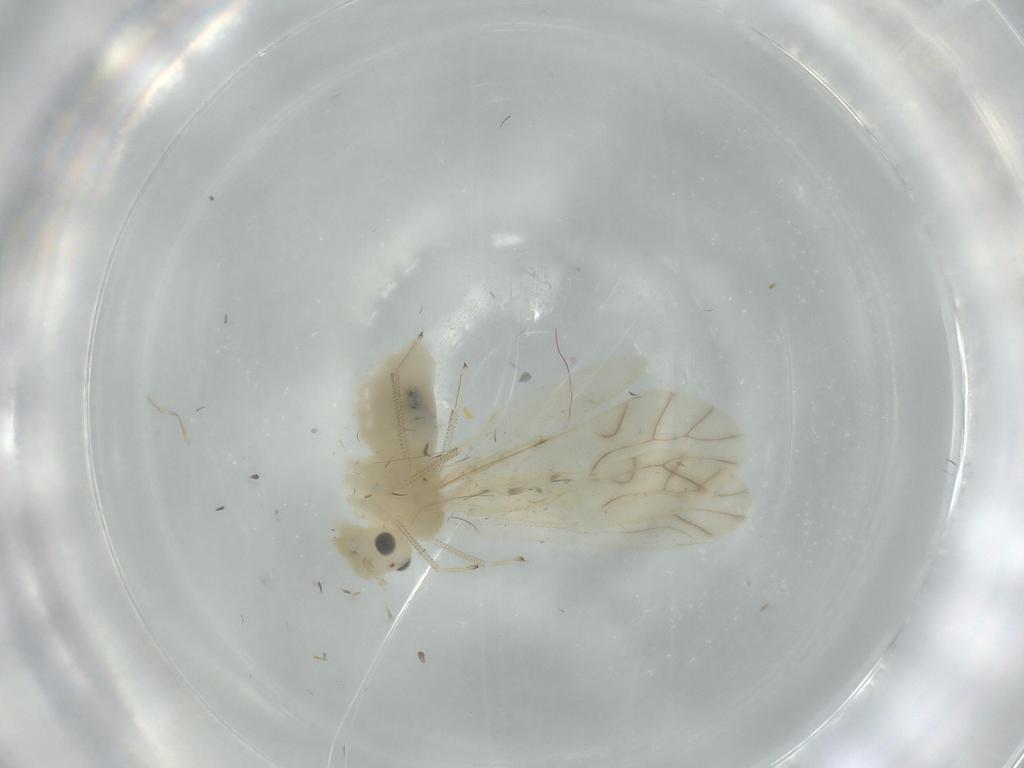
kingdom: Animalia
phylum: Arthropoda
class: Insecta
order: Psocodea
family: Caeciliusidae
